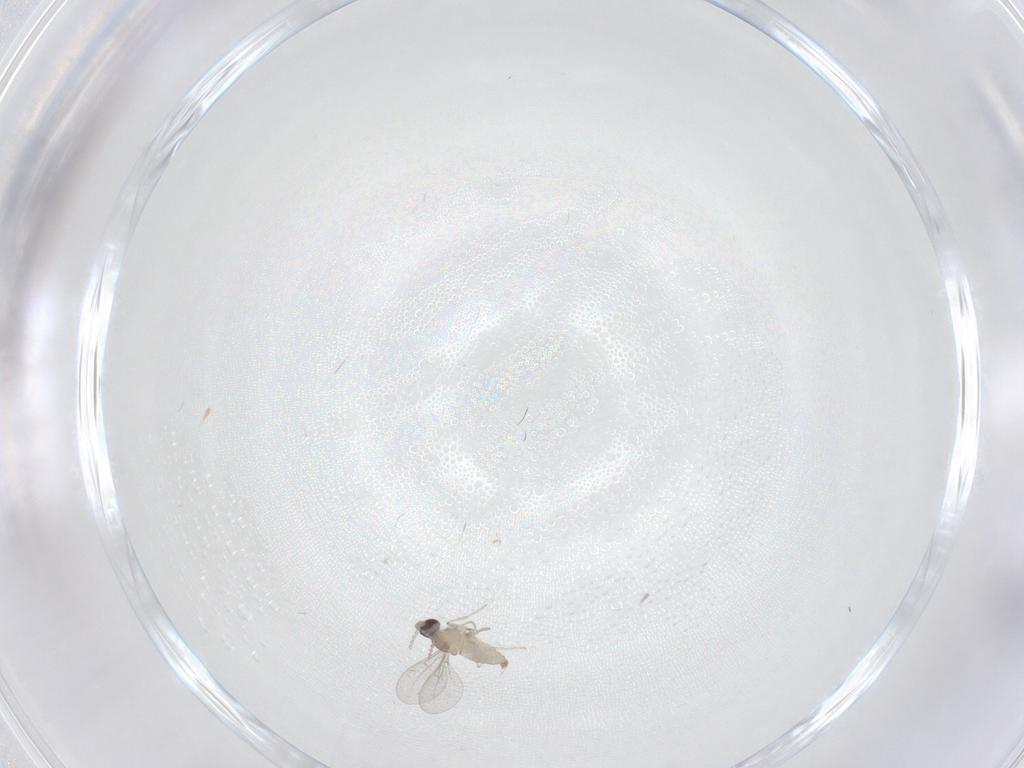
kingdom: Animalia
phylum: Arthropoda
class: Insecta
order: Diptera
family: Cecidomyiidae
